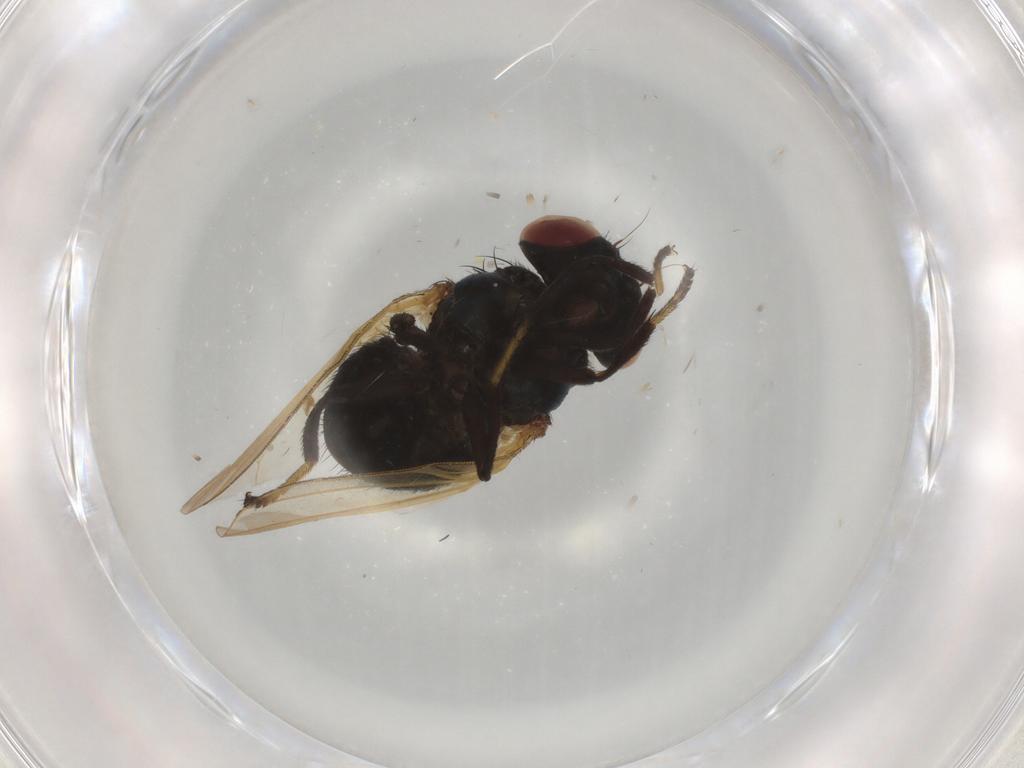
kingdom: Animalia
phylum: Arthropoda
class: Insecta
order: Diptera
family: Lonchaeidae
